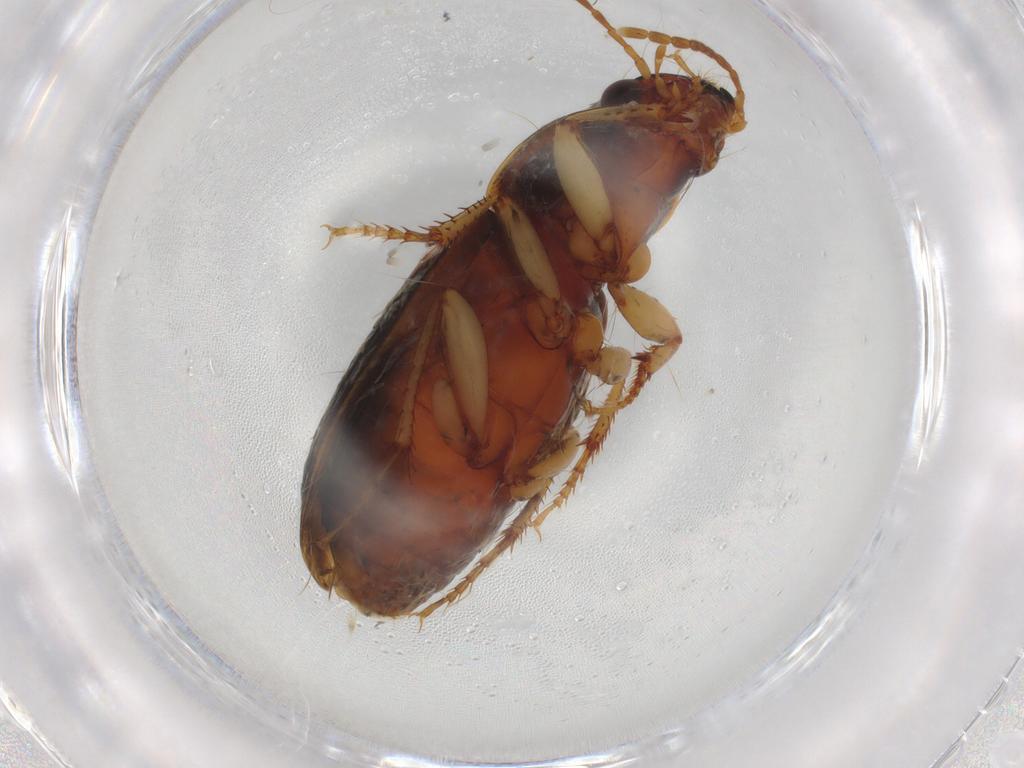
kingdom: Animalia
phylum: Arthropoda
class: Insecta
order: Coleoptera
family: Carabidae
